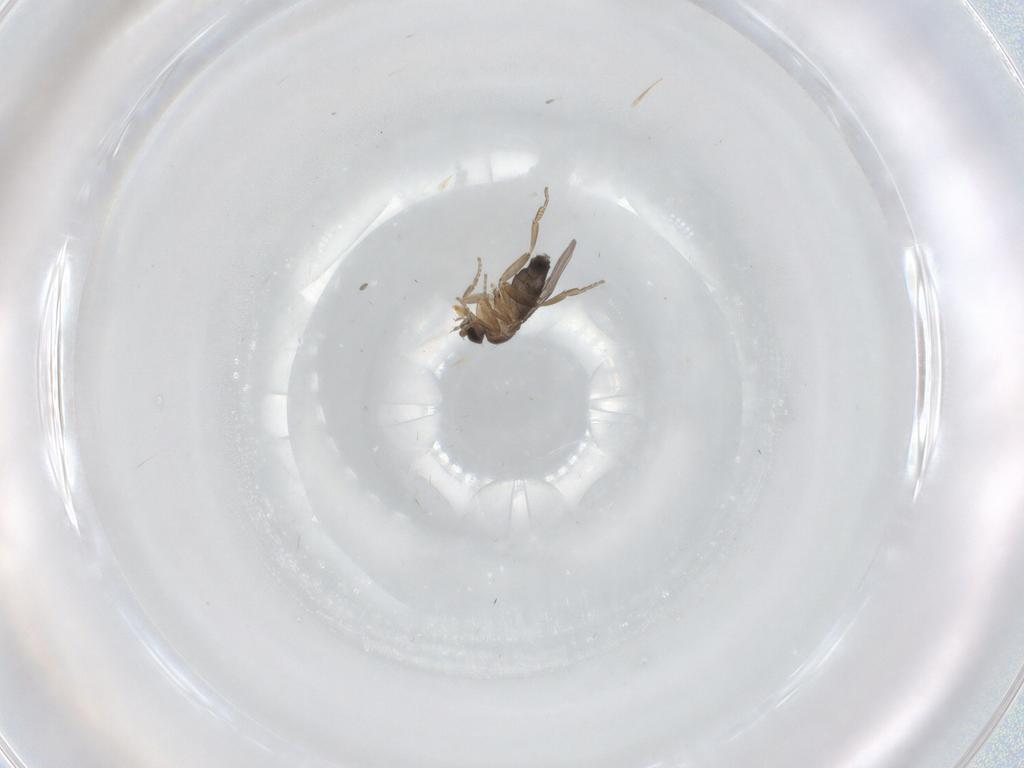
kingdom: Animalia
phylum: Arthropoda
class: Insecta
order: Diptera
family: Phoridae
